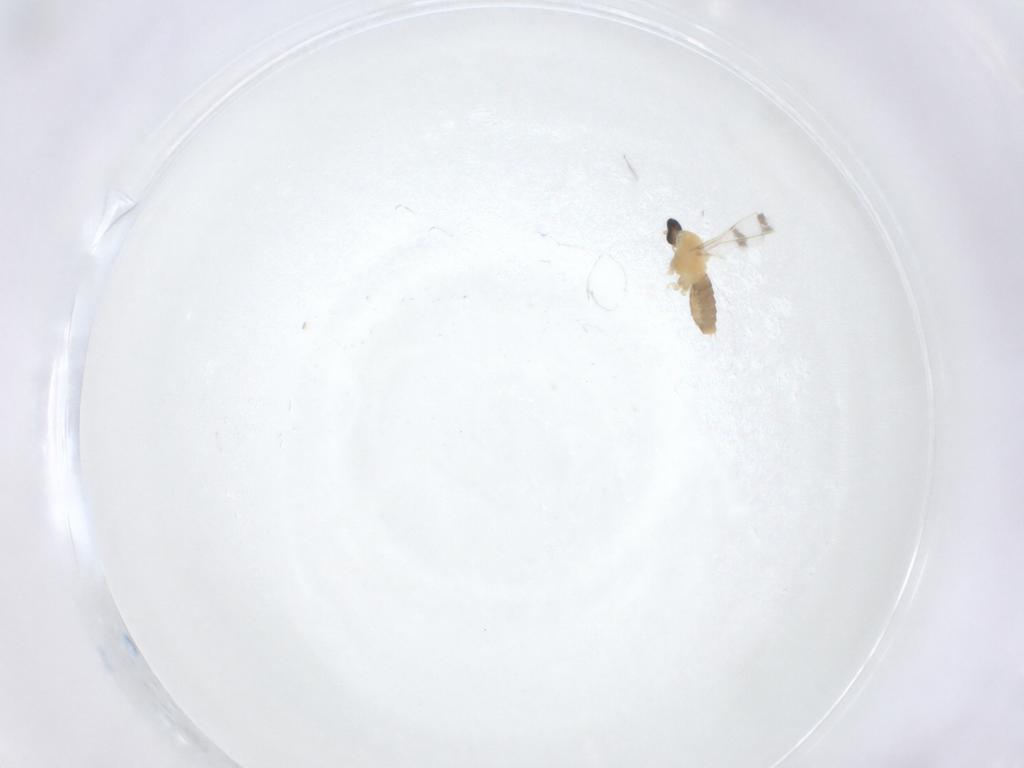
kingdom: Animalia
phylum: Arthropoda
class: Insecta
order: Diptera
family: Cecidomyiidae
